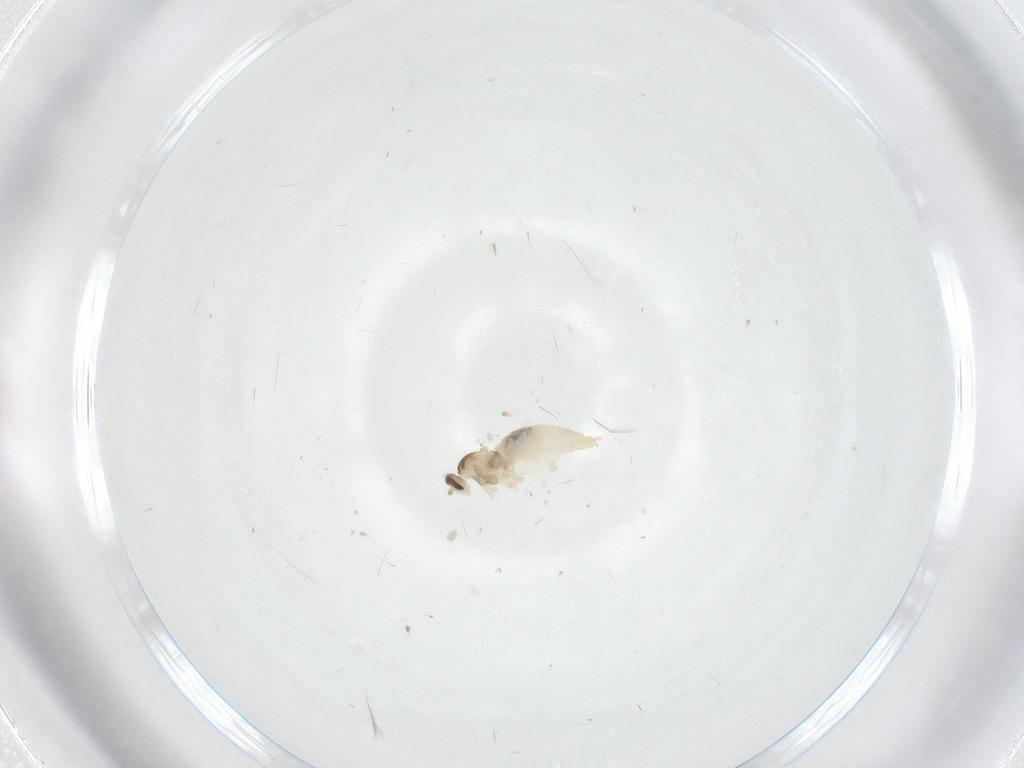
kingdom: Animalia
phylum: Arthropoda
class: Insecta
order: Diptera
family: Cecidomyiidae
